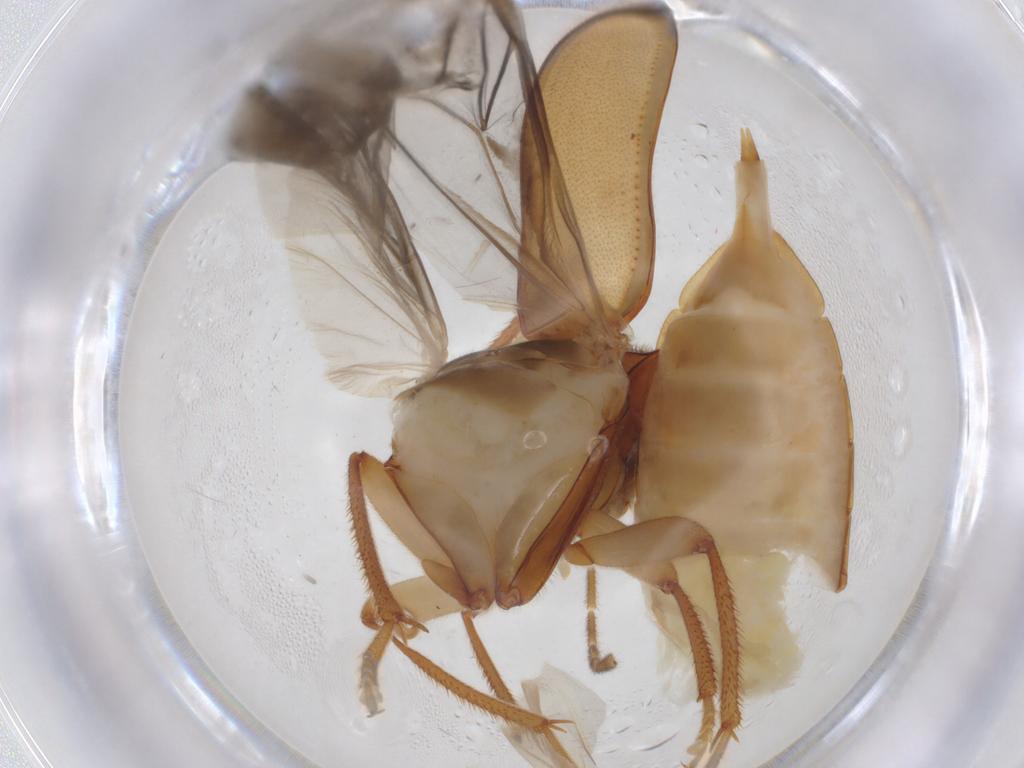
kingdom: Animalia
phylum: Arthropoda
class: Insecta
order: Coleoptera
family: Ptilodactylidae
